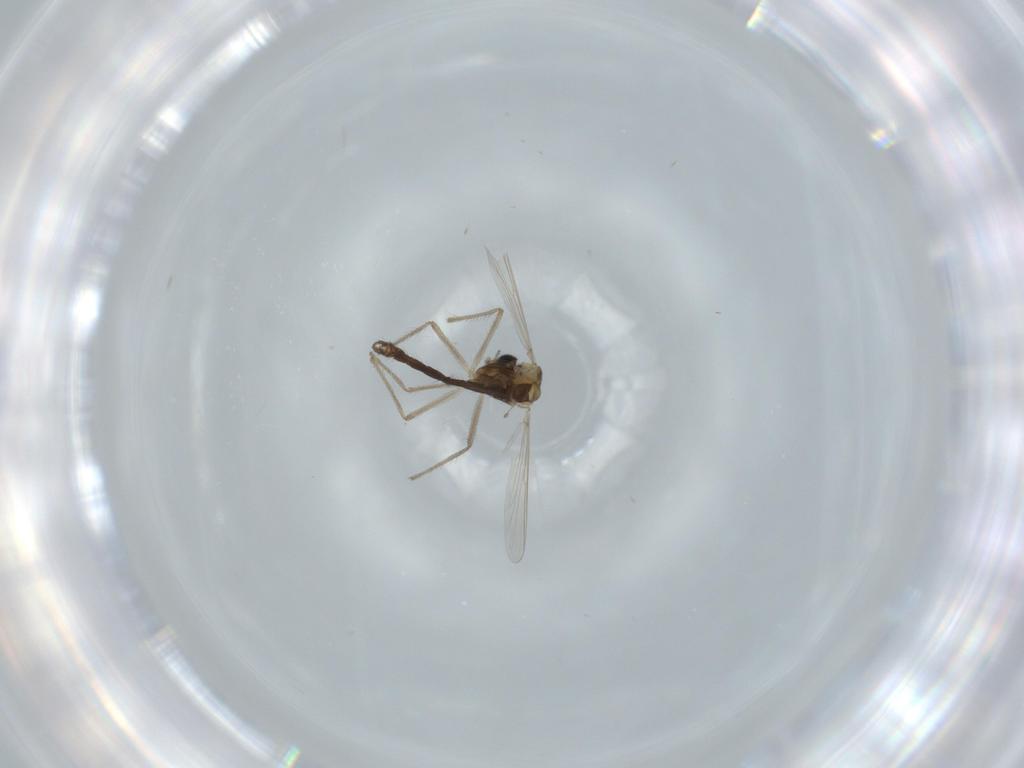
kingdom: Animalia
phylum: Arthropoda
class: Insecta
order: Diptera
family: Chironomidae
